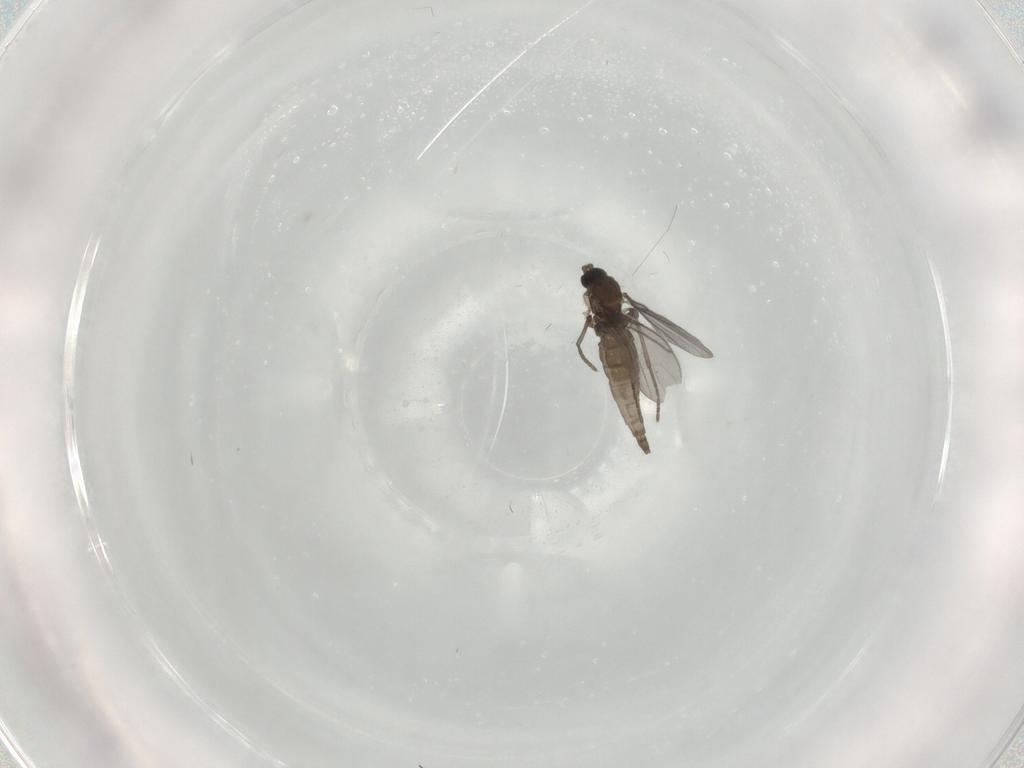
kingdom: Animalia
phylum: Arthropoda
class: Insecta
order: Diptera
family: Sciaridae
